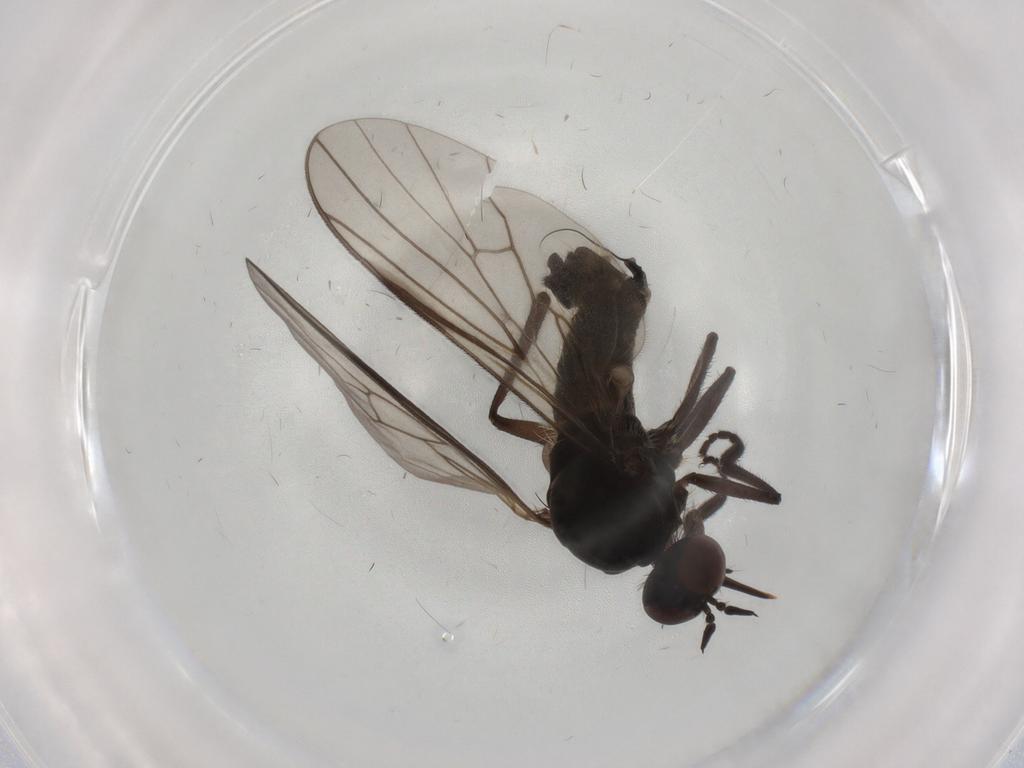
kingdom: Animalia
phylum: Arthropoda
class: Insecta
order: Diptera
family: Empididae
